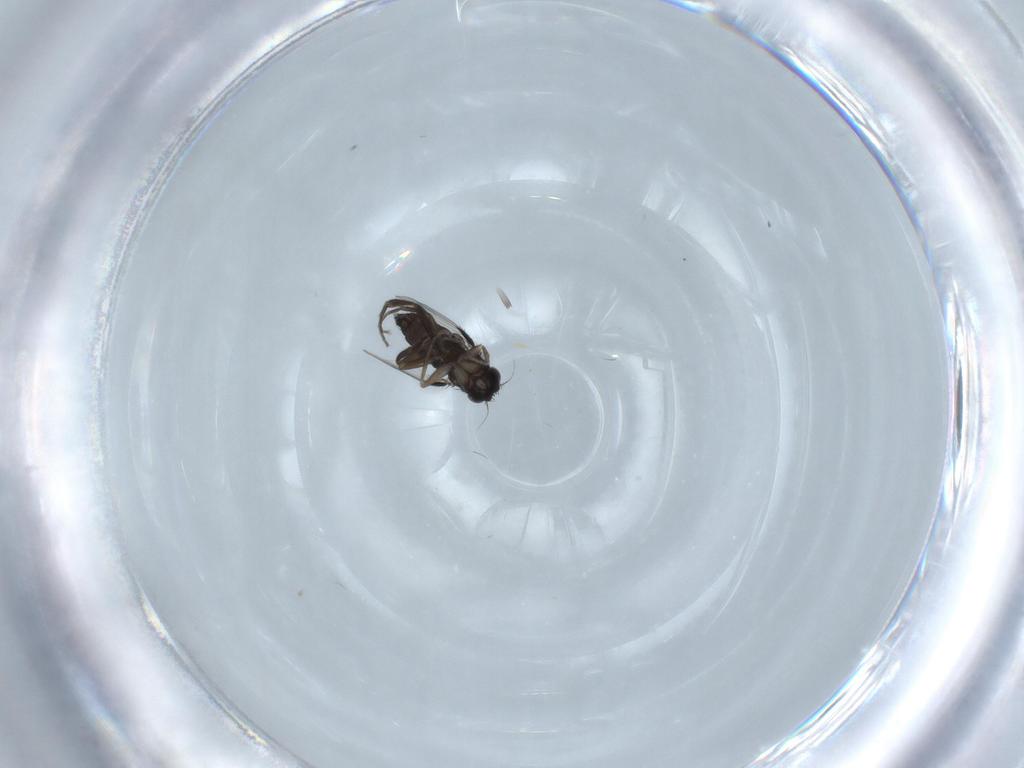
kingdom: Animalia
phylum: Arthropoda
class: Insecta
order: Diptera
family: Phoridae
